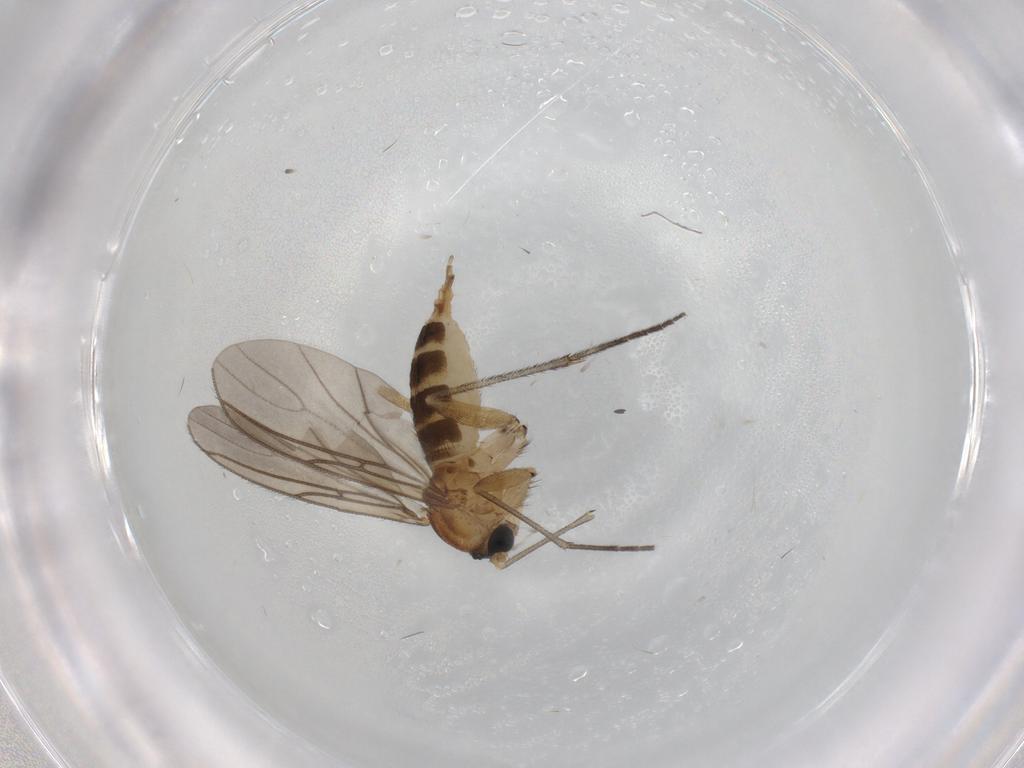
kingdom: Animalia
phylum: Arthropoda
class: Insecta
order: Diptera
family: Sciaridae
